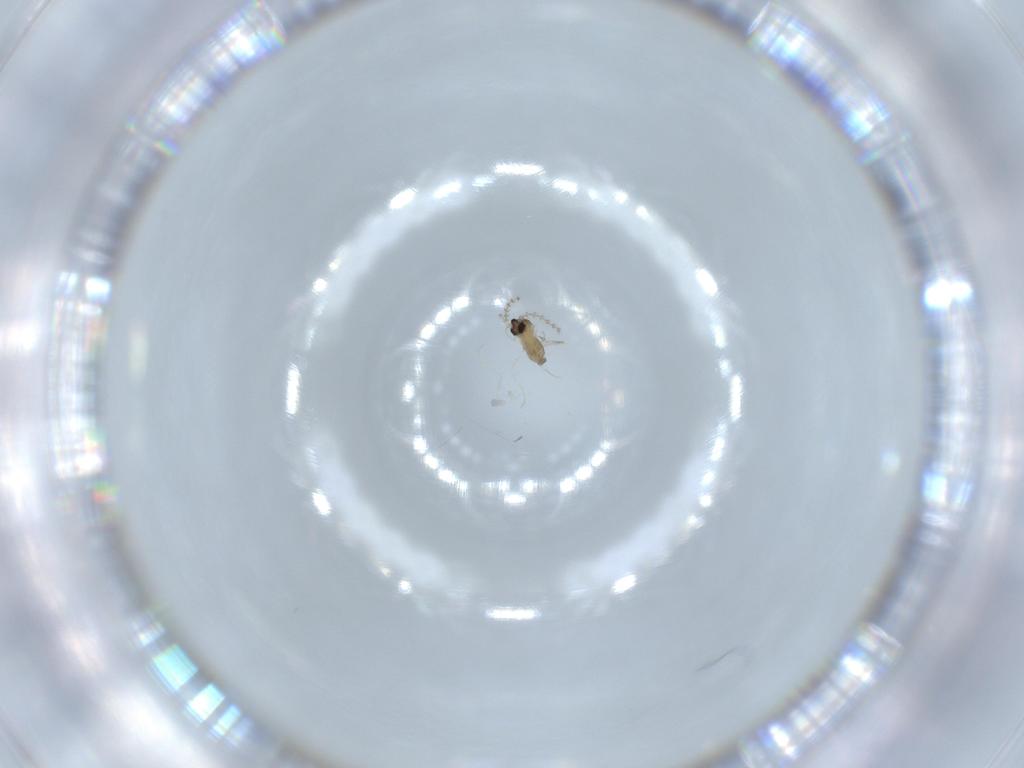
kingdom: Animalia
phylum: Arthropoda
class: Insecta
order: Diptera
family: Cecidomyiidae
